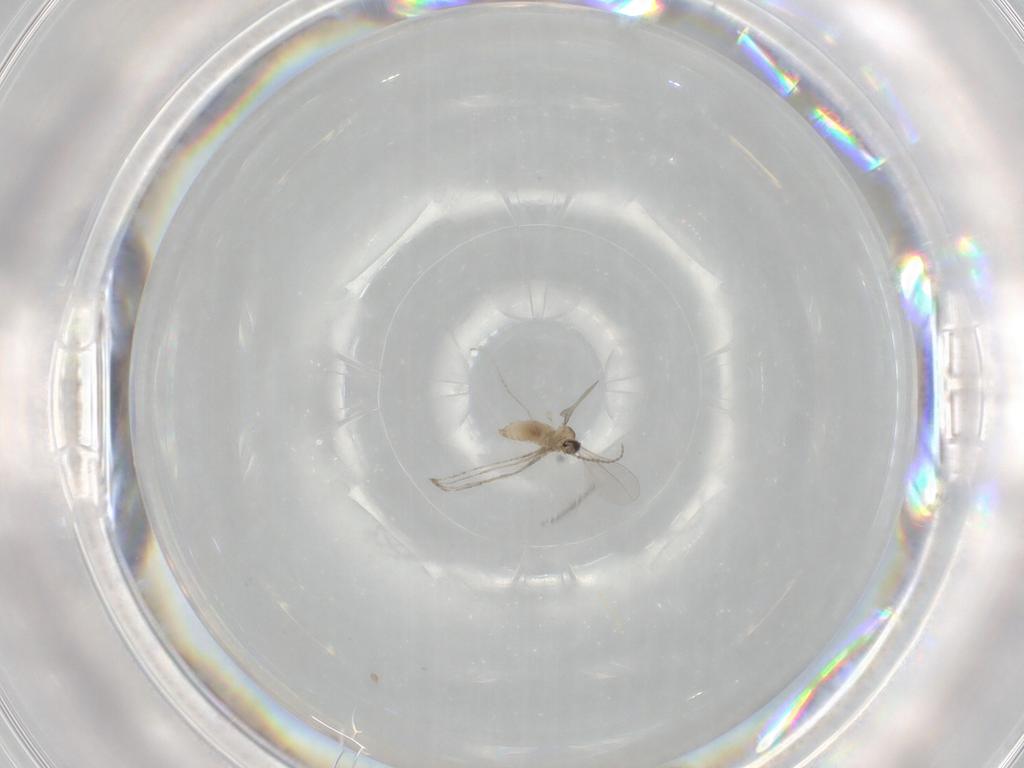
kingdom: Animalia
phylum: Arthropoda
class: Insecta
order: Diptera
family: Cecidomyiidae
